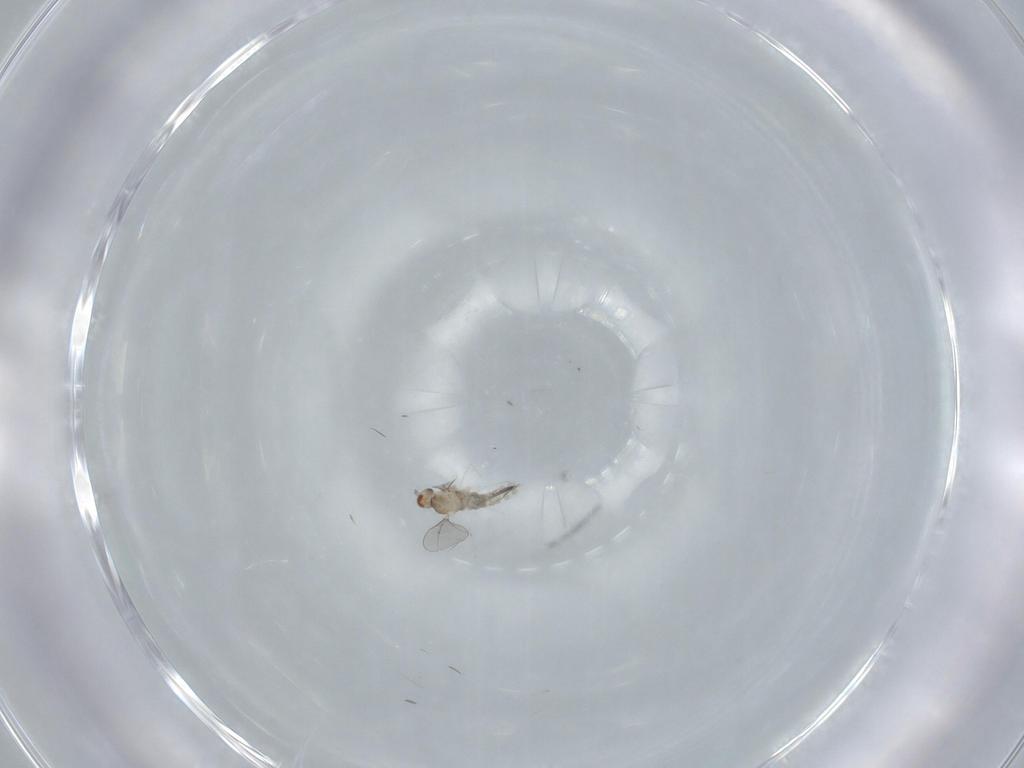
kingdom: Animalia
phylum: Arthropoda
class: Insecta
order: Diptera
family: Cecidomyiidae
